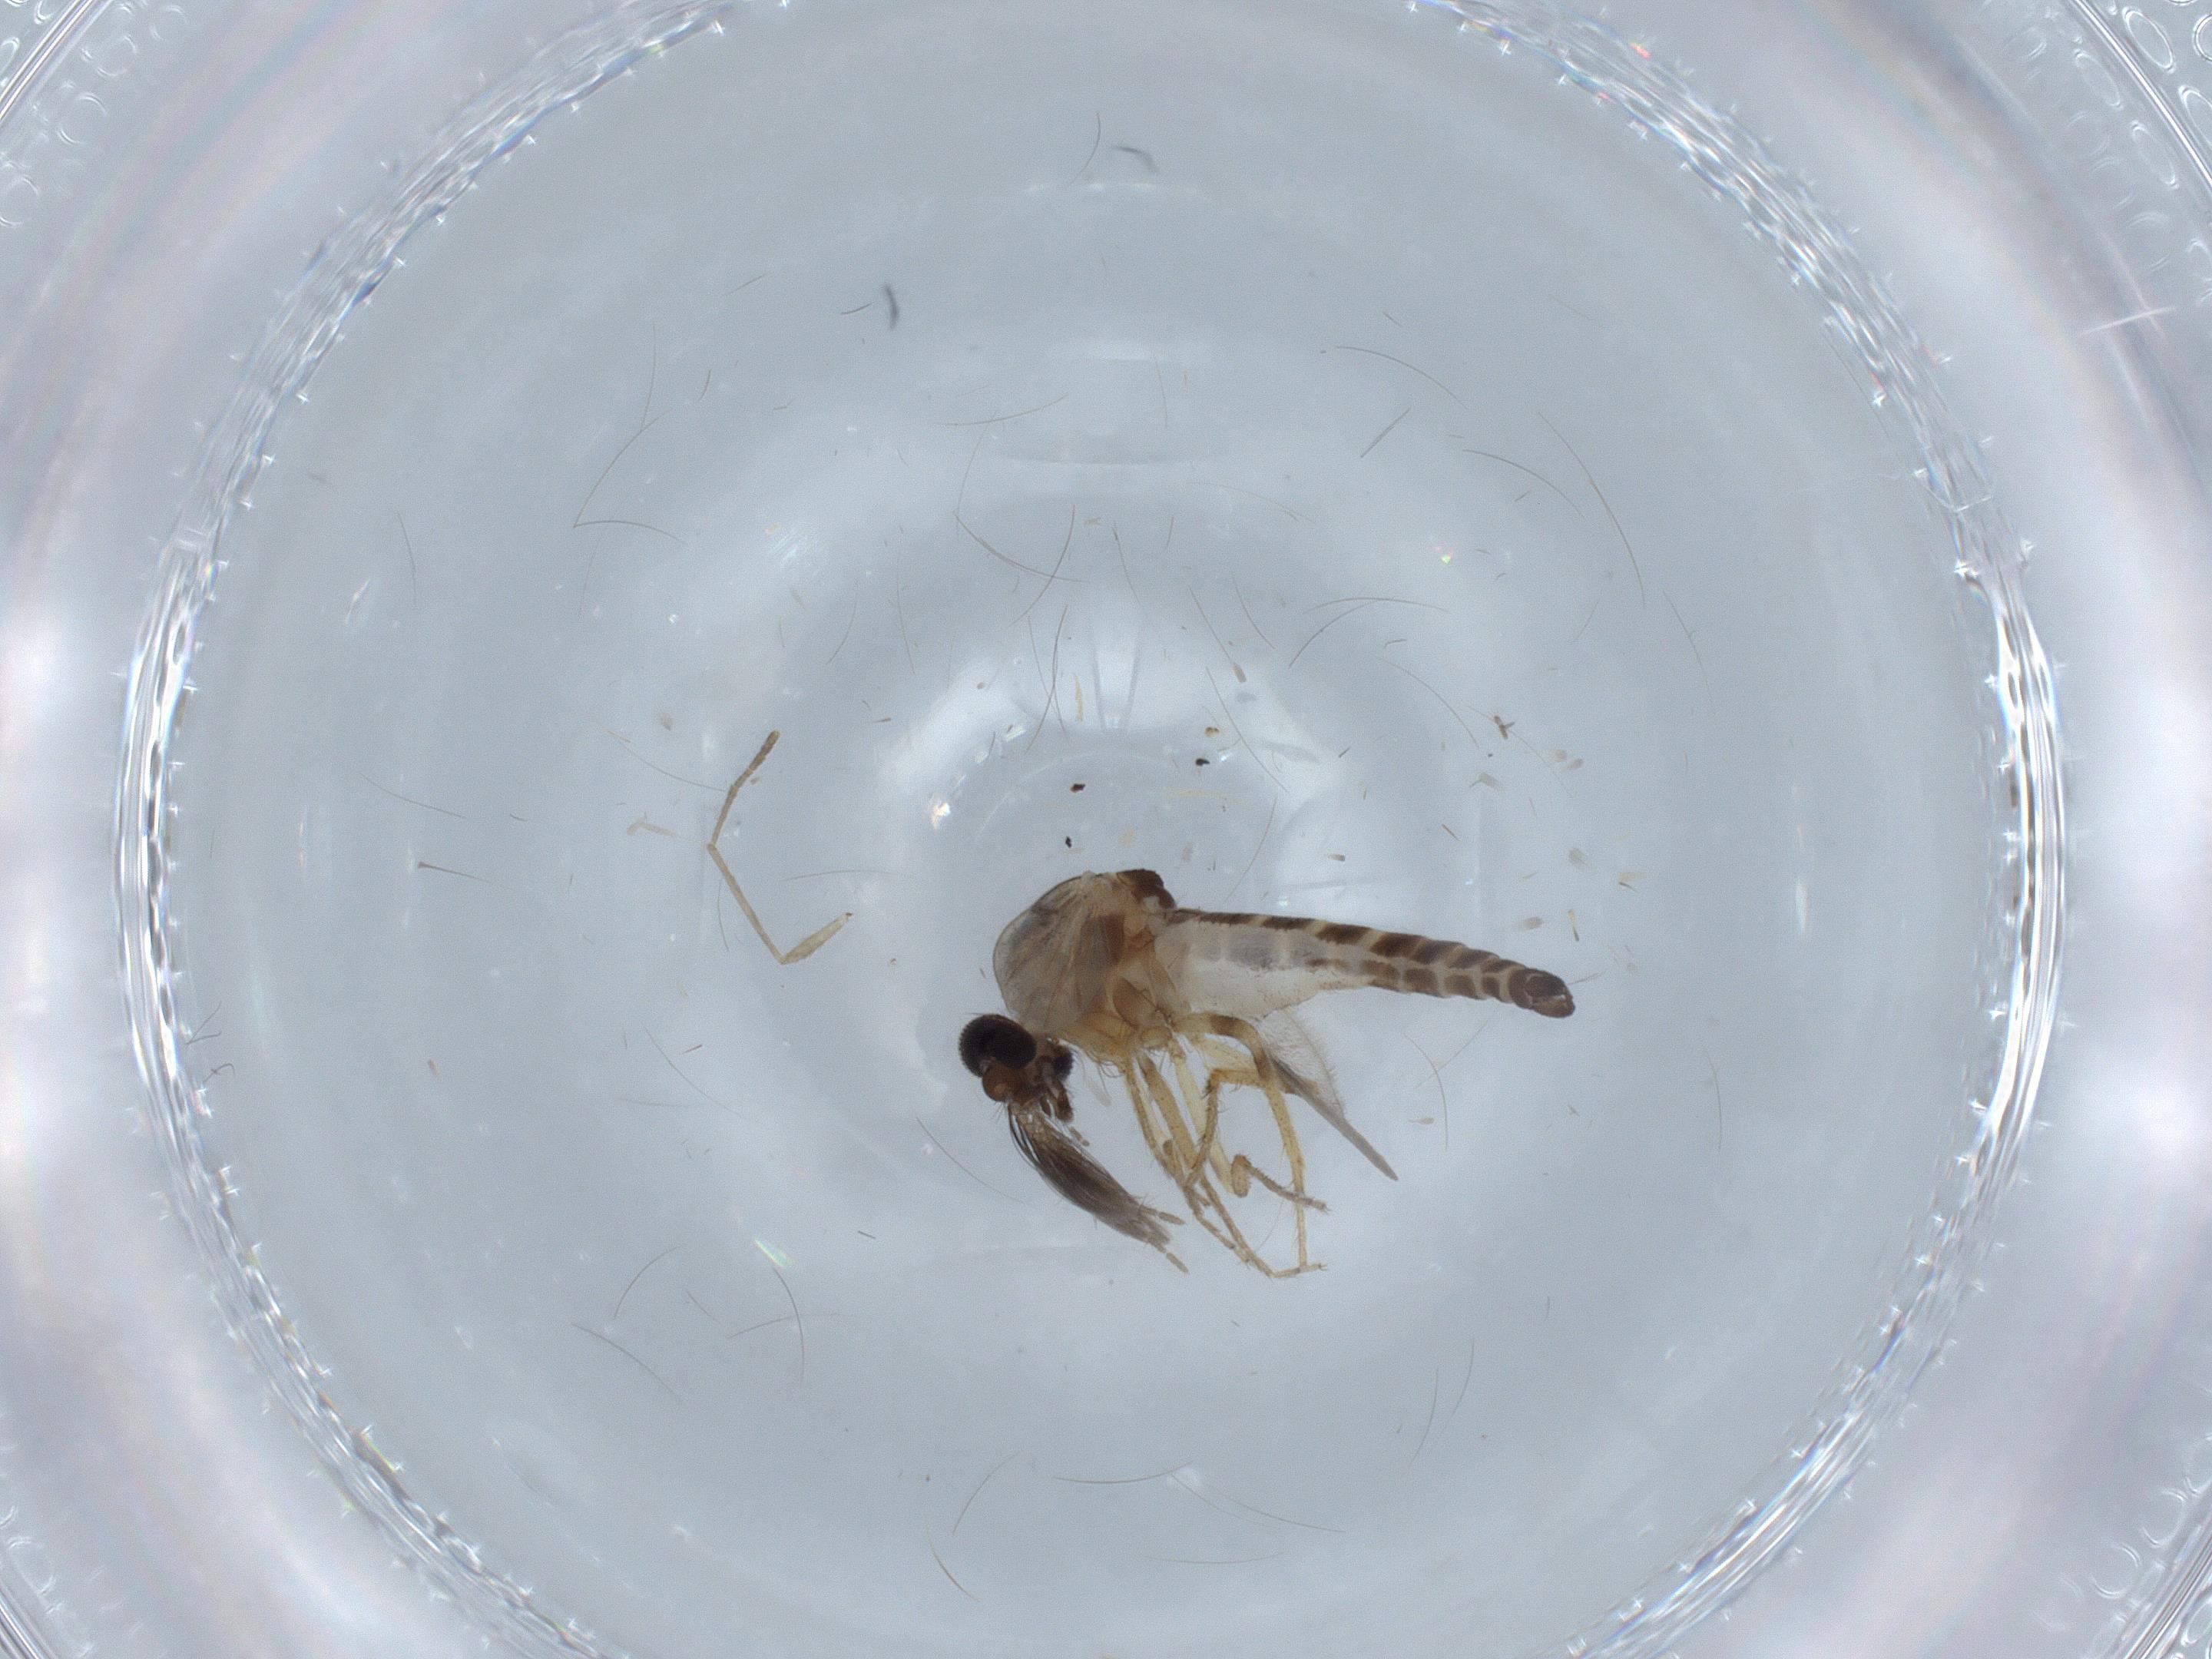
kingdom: Animalia
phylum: Arthropoda
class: Insecta
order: Diptera
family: Ceratopogonidae
